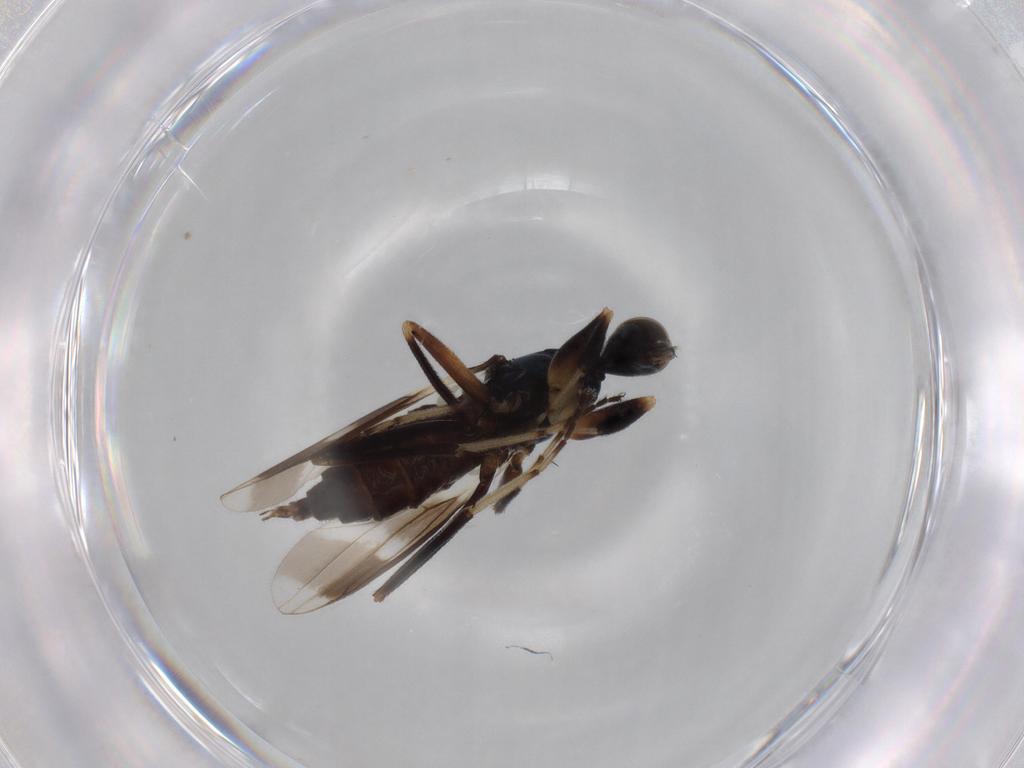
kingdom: Animalia
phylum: Arthropoda
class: Insecta
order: Diptera
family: Hybotidae
